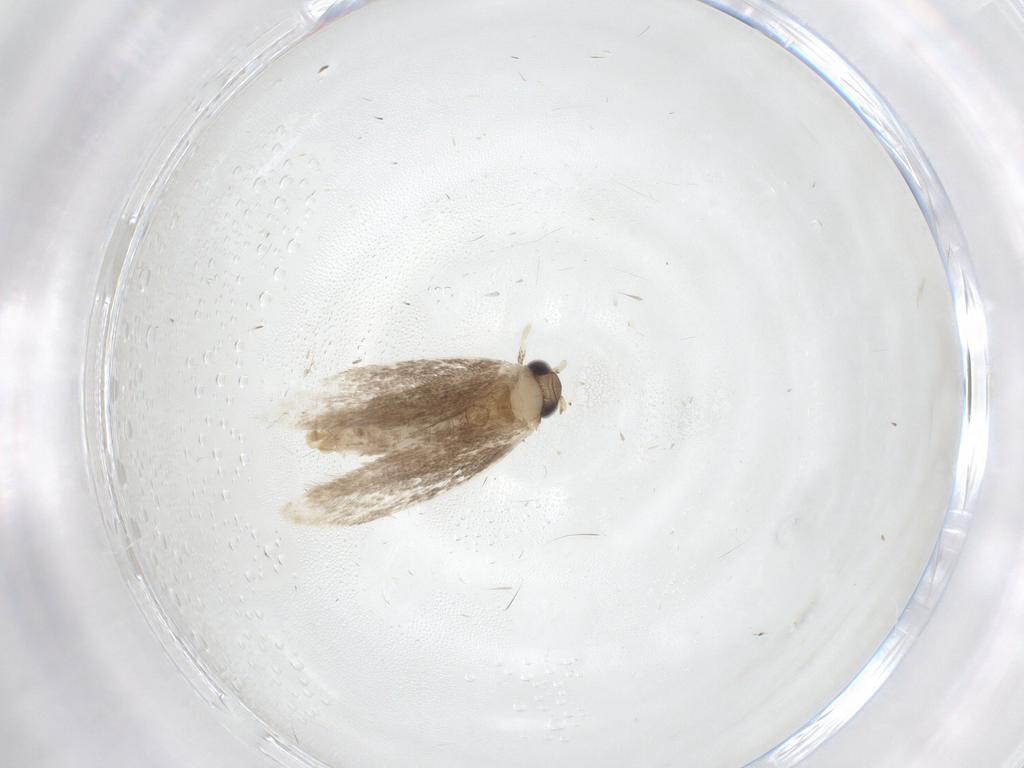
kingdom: Animalia
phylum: Arthropoda
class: Insecta
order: Lepidoptera
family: Dryadaulidae
